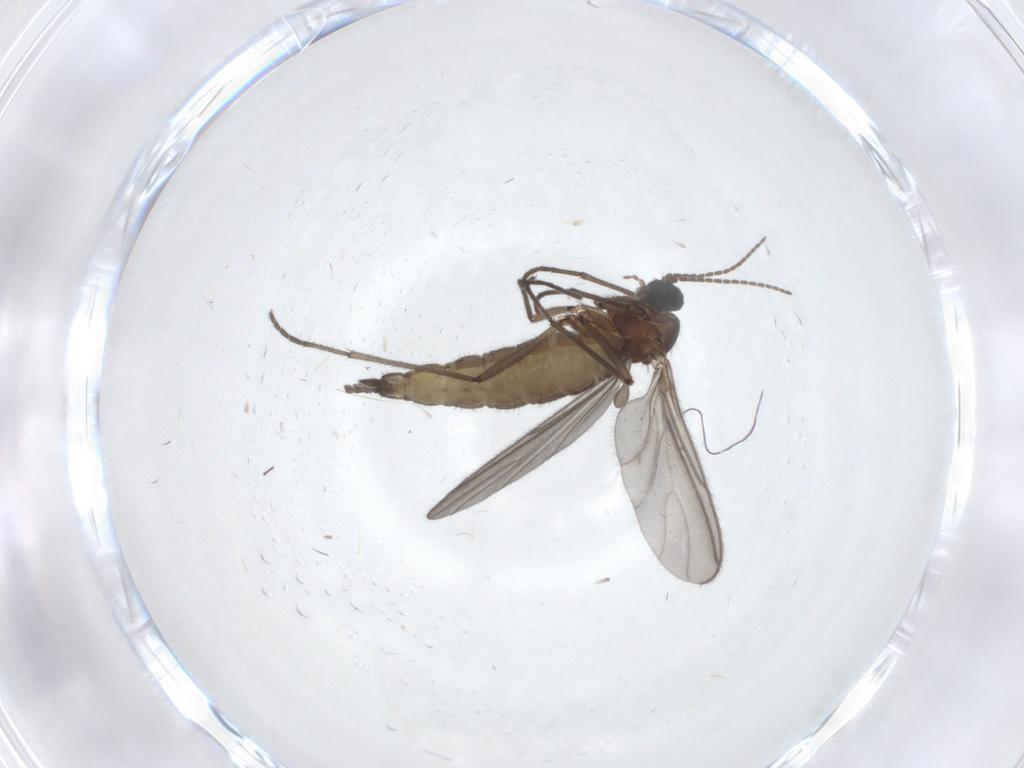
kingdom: Animalia
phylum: Arthropoda
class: Insecta
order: Diptera
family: Sciaridae
